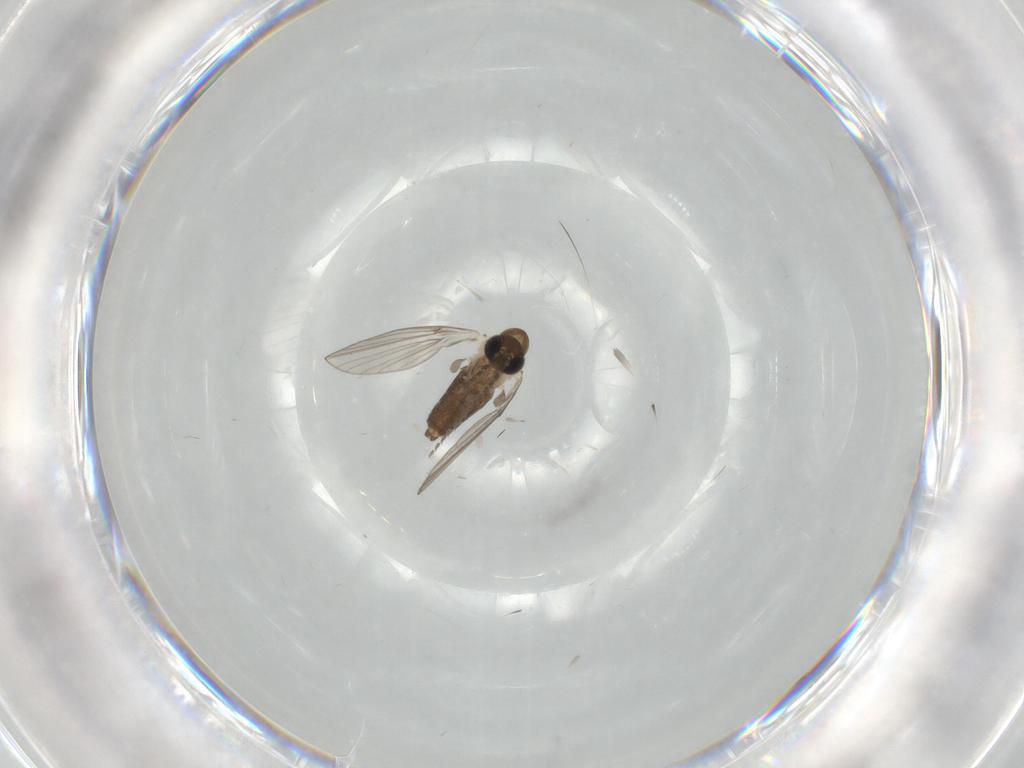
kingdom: Animalia
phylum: Arthropoda
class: Insecta
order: Diptera
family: Psychodidae
